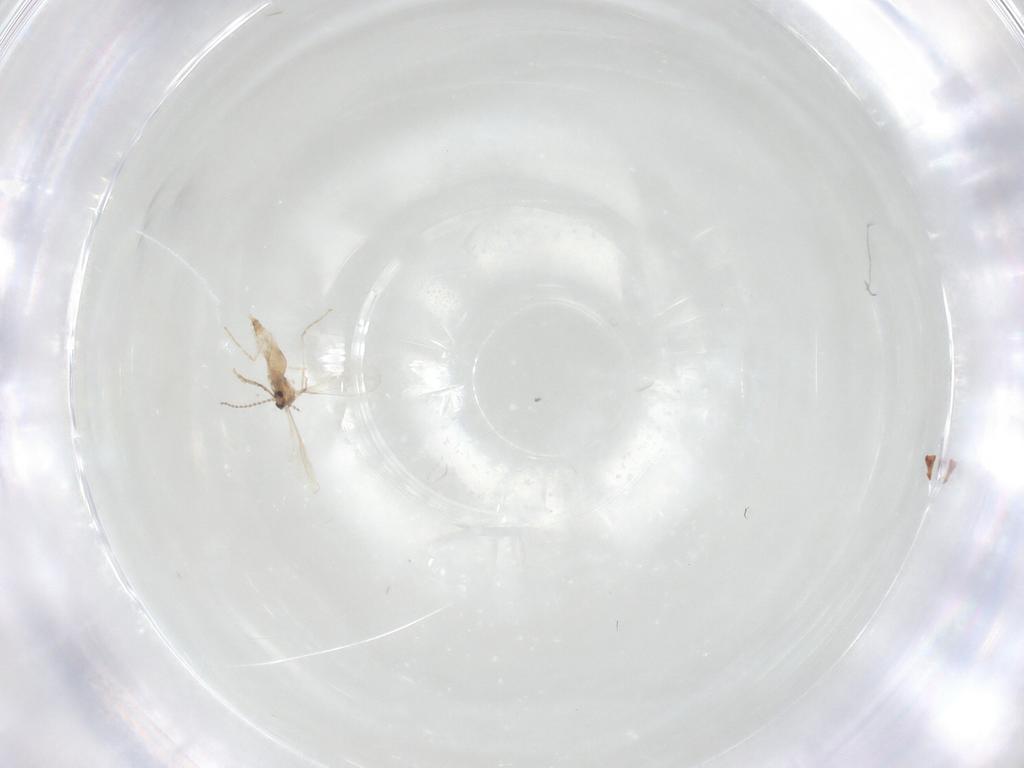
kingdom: Animalia
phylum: Arthropoda
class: Insecta
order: Diptera
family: Cecidomyiidae
